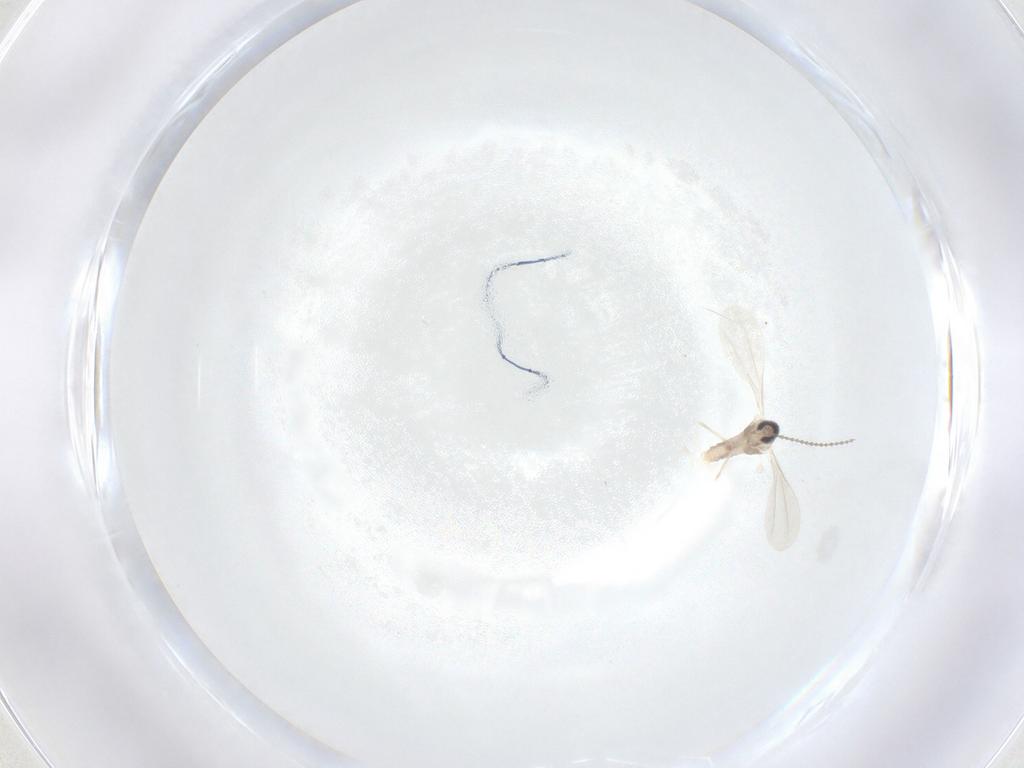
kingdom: Animalia
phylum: Arthropoda
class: Insecta
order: Diptera
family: Cecidomyiidae
